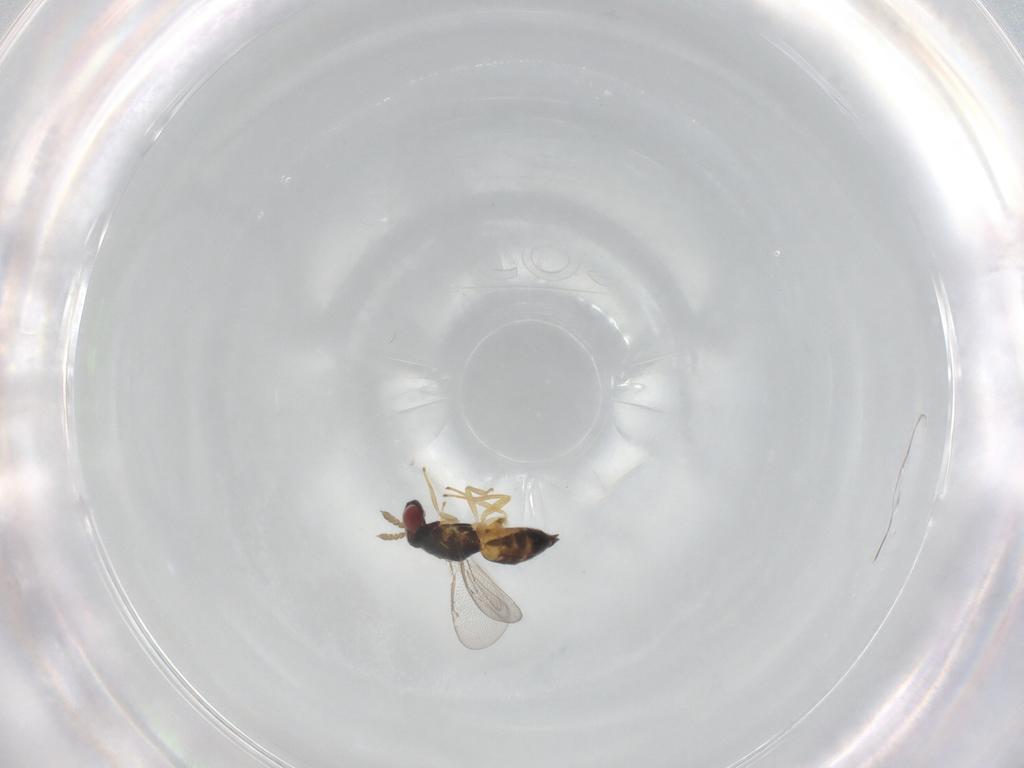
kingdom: Animalia
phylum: Arthropoda
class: Insecta
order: Hymenoptera
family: Eulophidae
